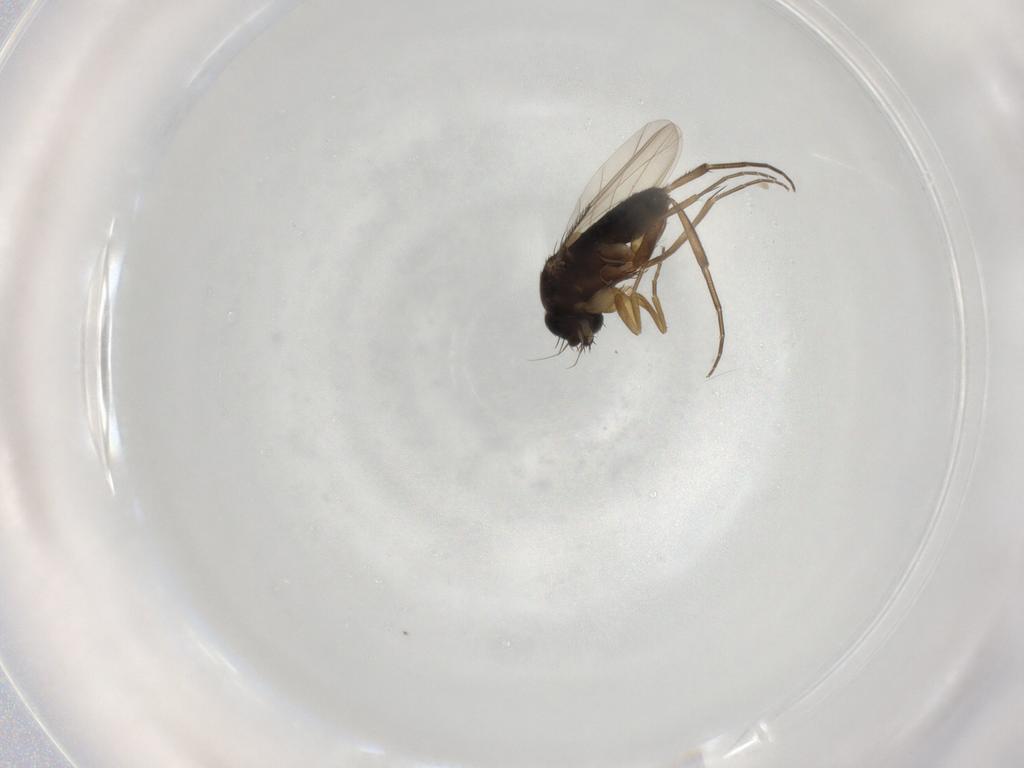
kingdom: Animalia
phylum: Arthropoda
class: Insecta
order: Diptera
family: Phoridae
